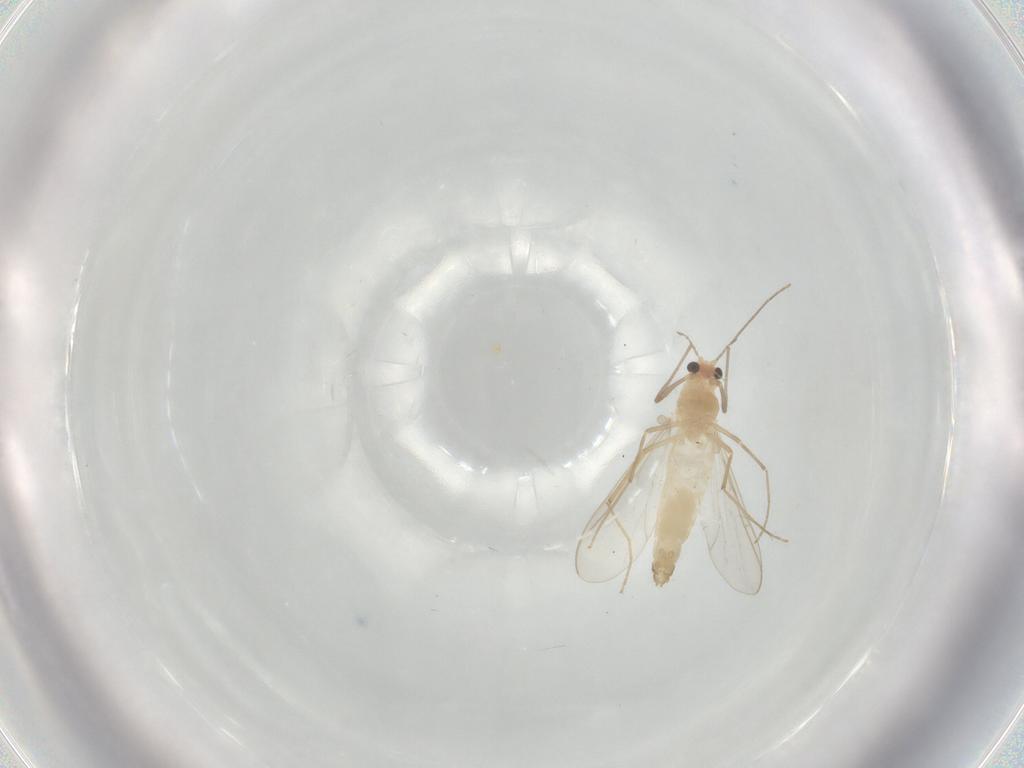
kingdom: Animalia
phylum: Arthropoda
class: Insecta
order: Diptera
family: Chironomidae
